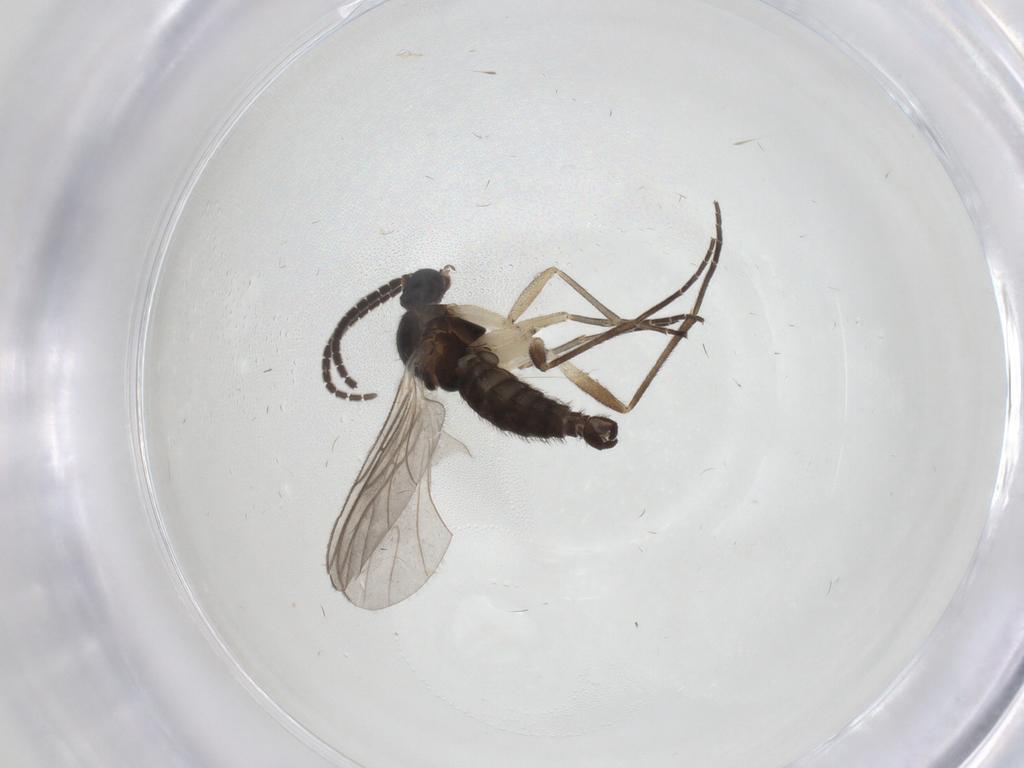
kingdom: Animalia
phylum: Arthropoda
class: Insecta
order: Diptera
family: Sciaridae
